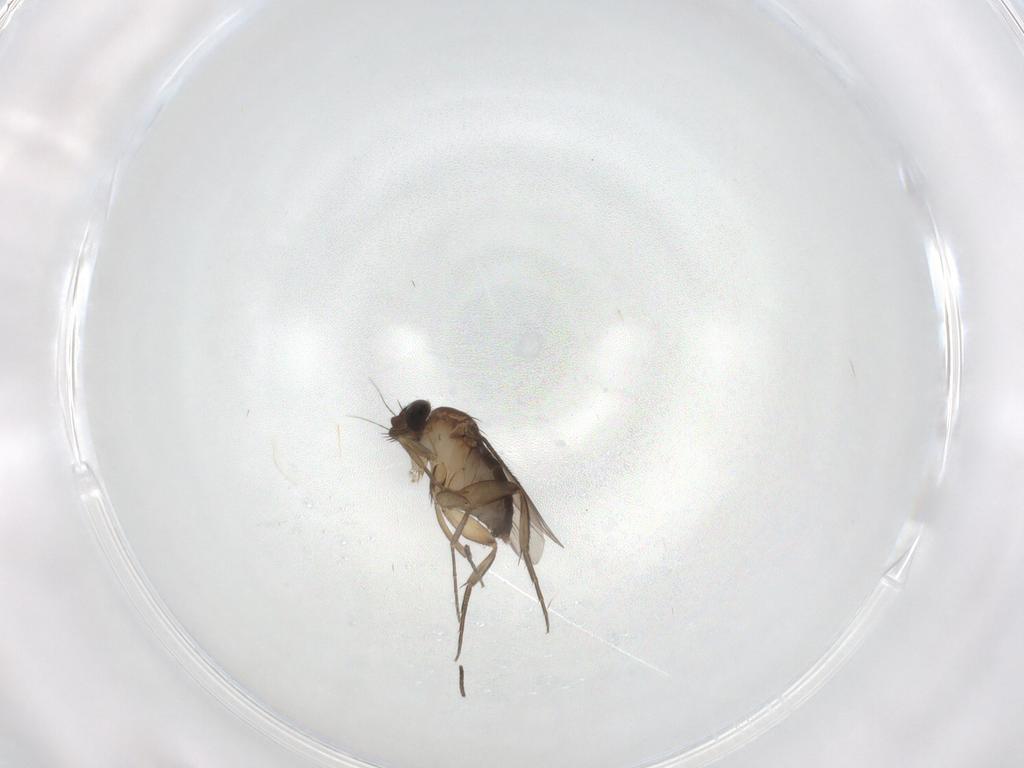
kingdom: Animalia
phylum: Arthropoda
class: Insecta
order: Diptera
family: Phoridae
